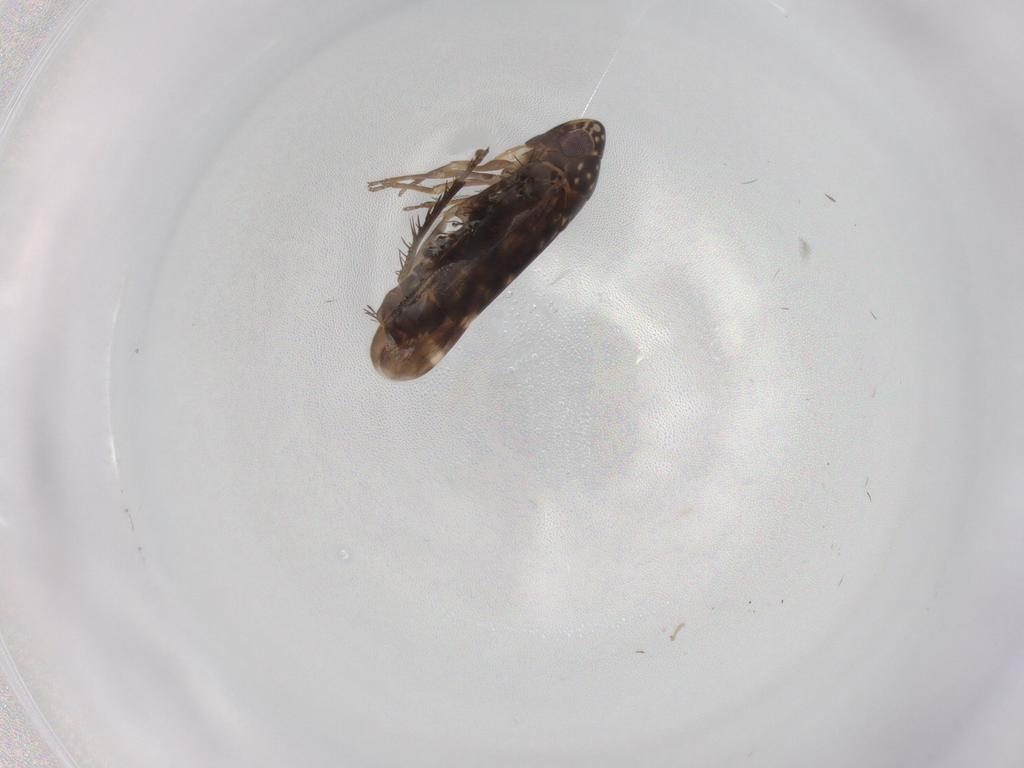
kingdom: Animalia
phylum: Arthropoda
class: Insecta
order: Hemiptera
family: Cicadellidae
